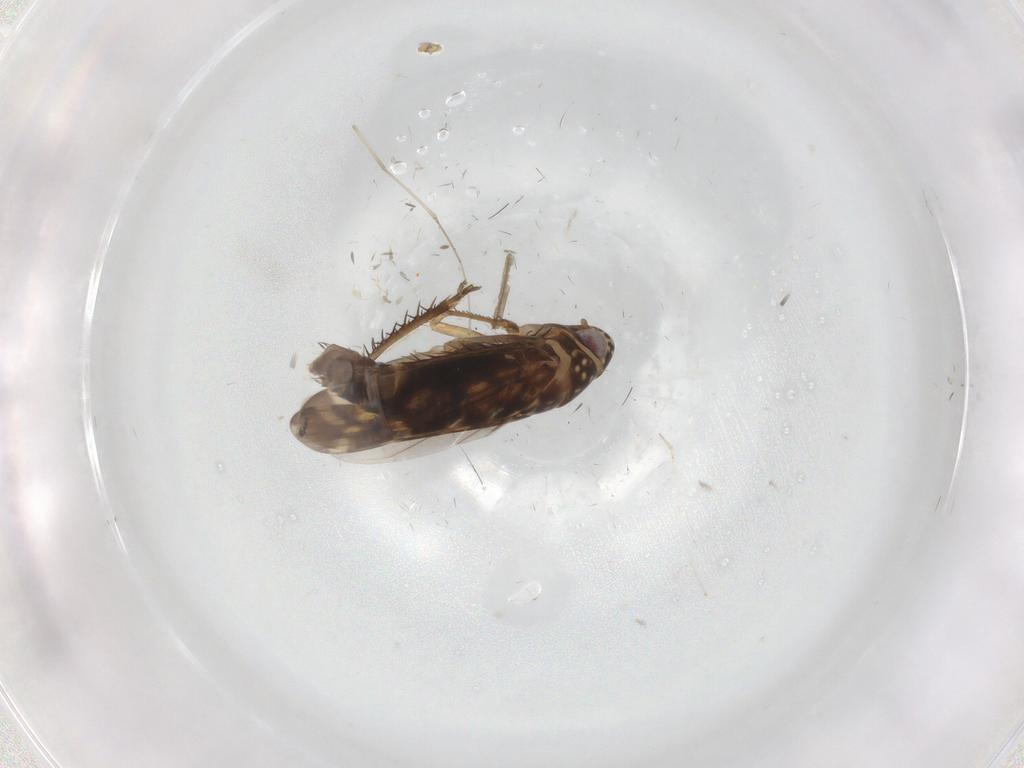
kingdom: Animalia
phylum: Arthropoda
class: Insecta
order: Hemiptera
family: Cicadellidae
